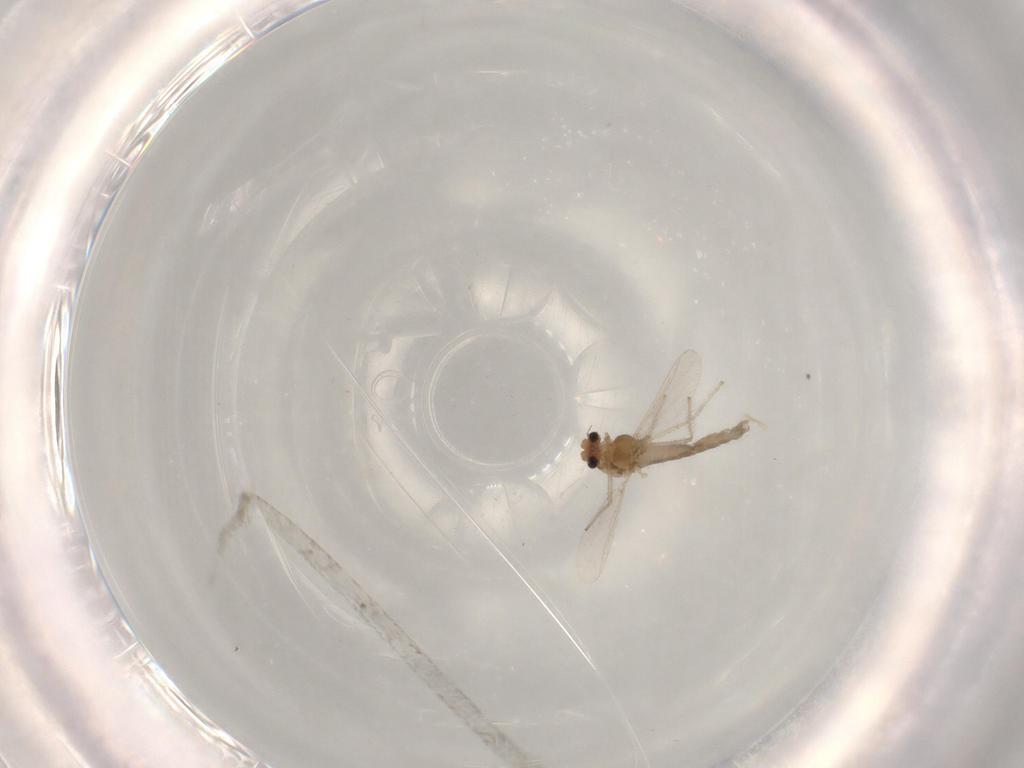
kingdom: Animalia
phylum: Arthropoda
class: Insecta
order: Diptera
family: Chironomidae
